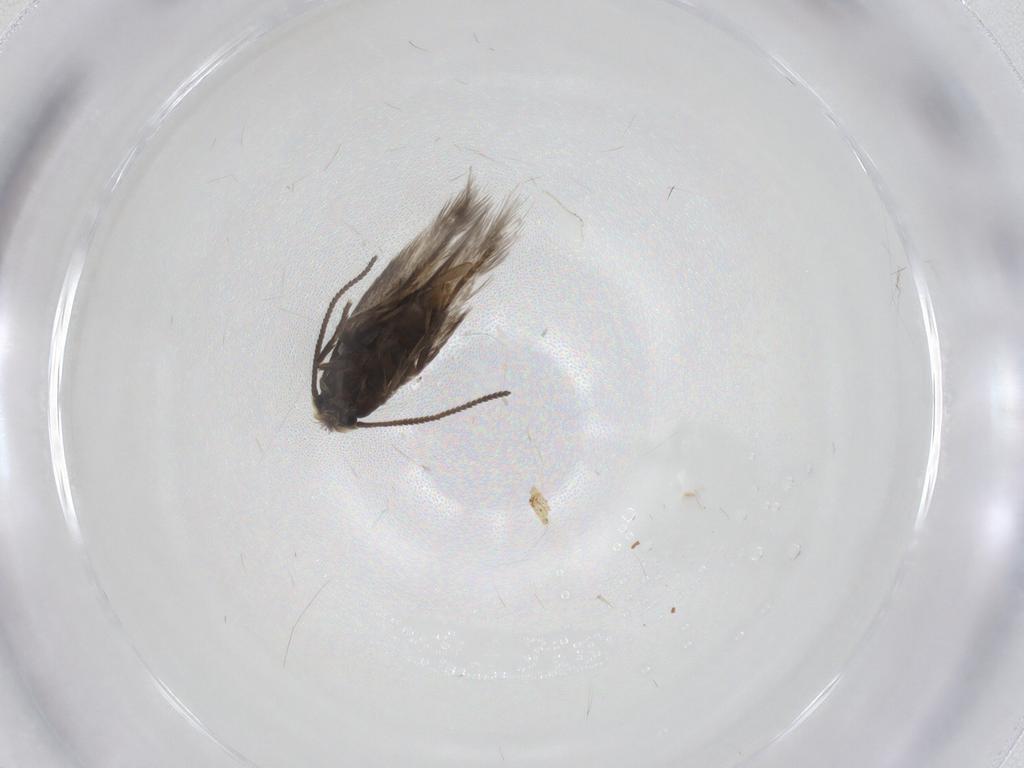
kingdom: Animalia
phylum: Arthropoda
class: Insecta
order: Lepidoptera
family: Nepticulidae
